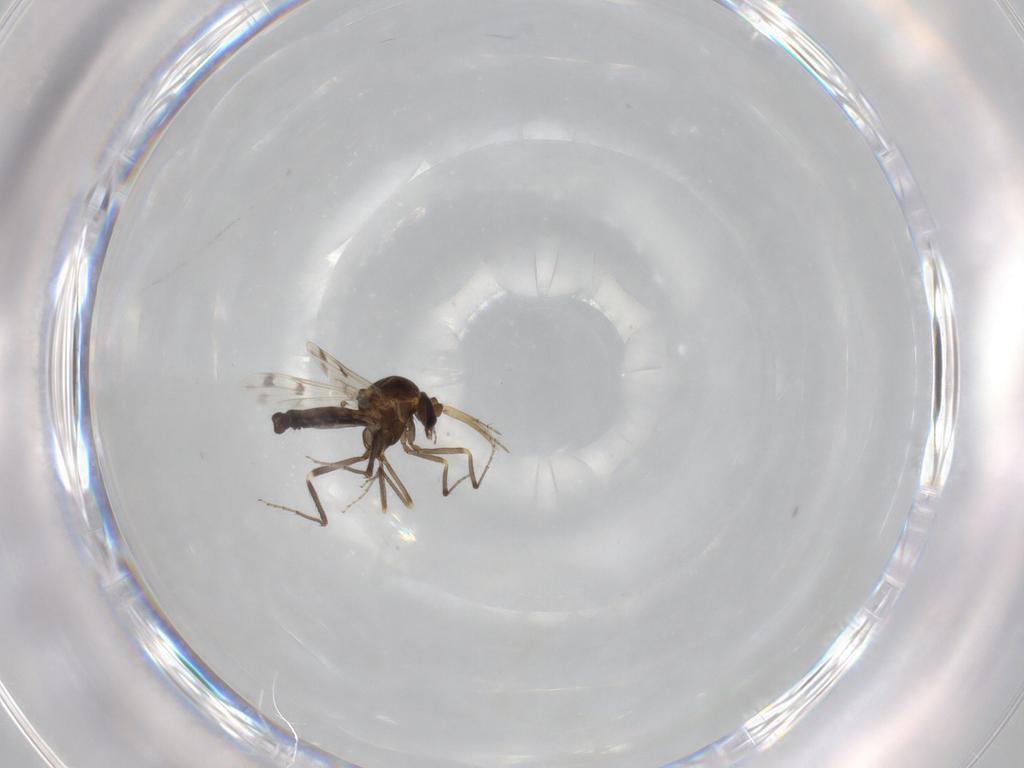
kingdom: Animalia
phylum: Arthropoda
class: Insecta
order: Diptera
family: Ceratopogonidae
